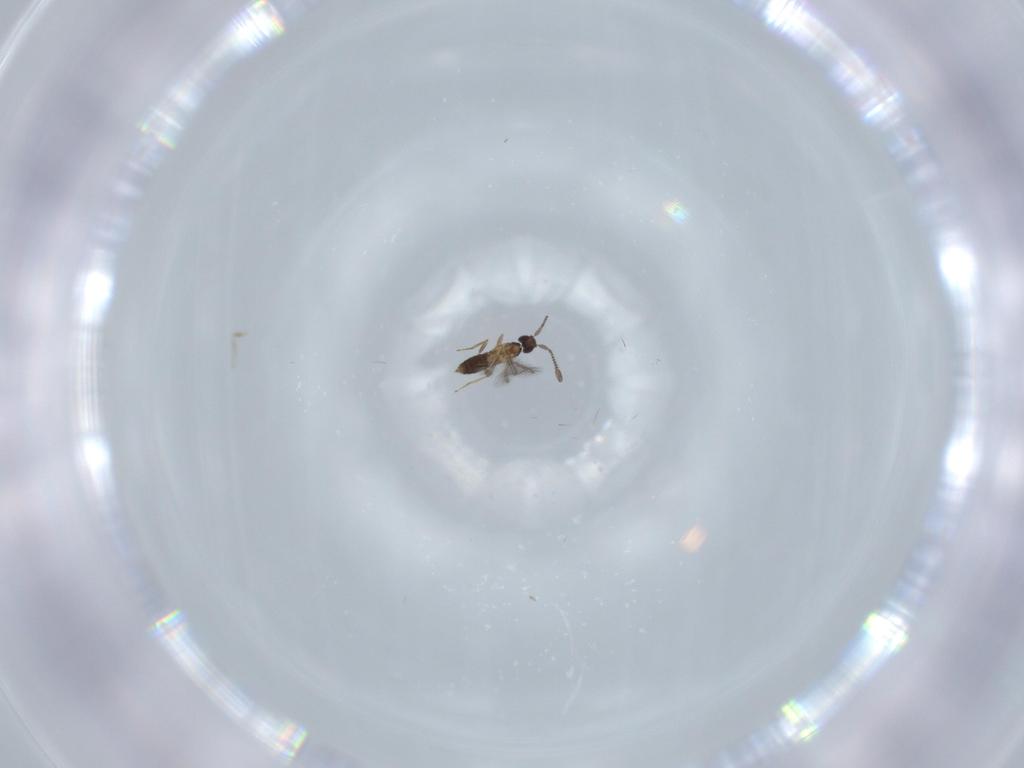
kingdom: Animalia
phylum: Arthropoda
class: Insecta
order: Hymenoptera
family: Mymaridae
